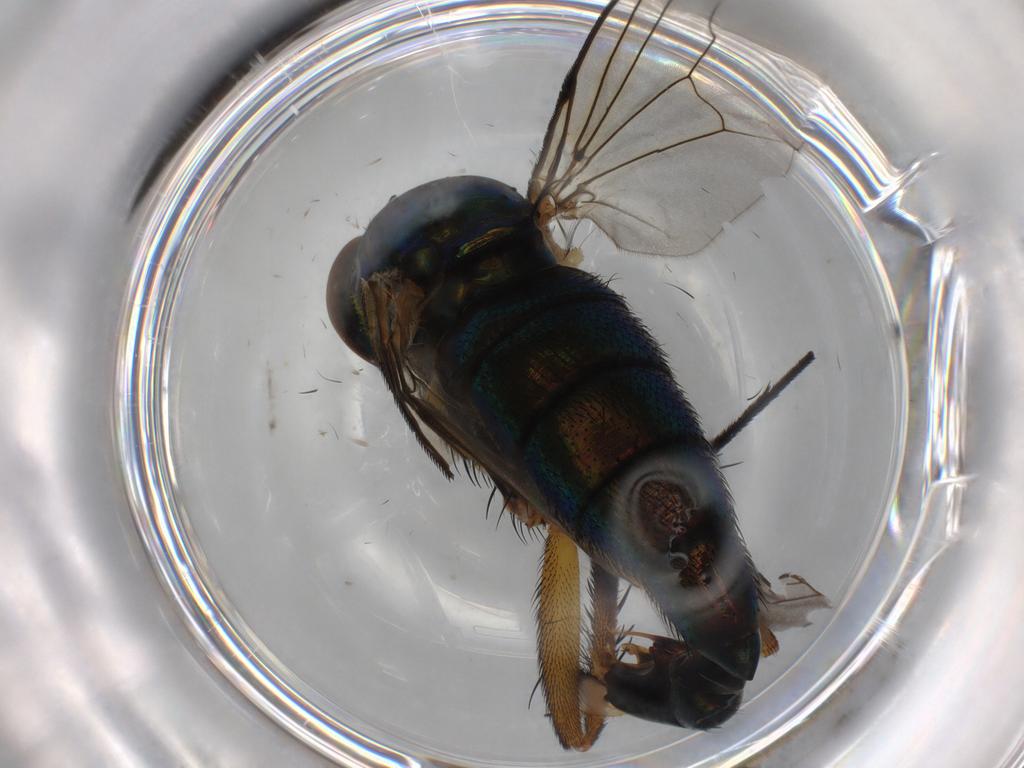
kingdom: Animalia
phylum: Arthropoda
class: Insecta
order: Diptera
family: Dolichopodidae
